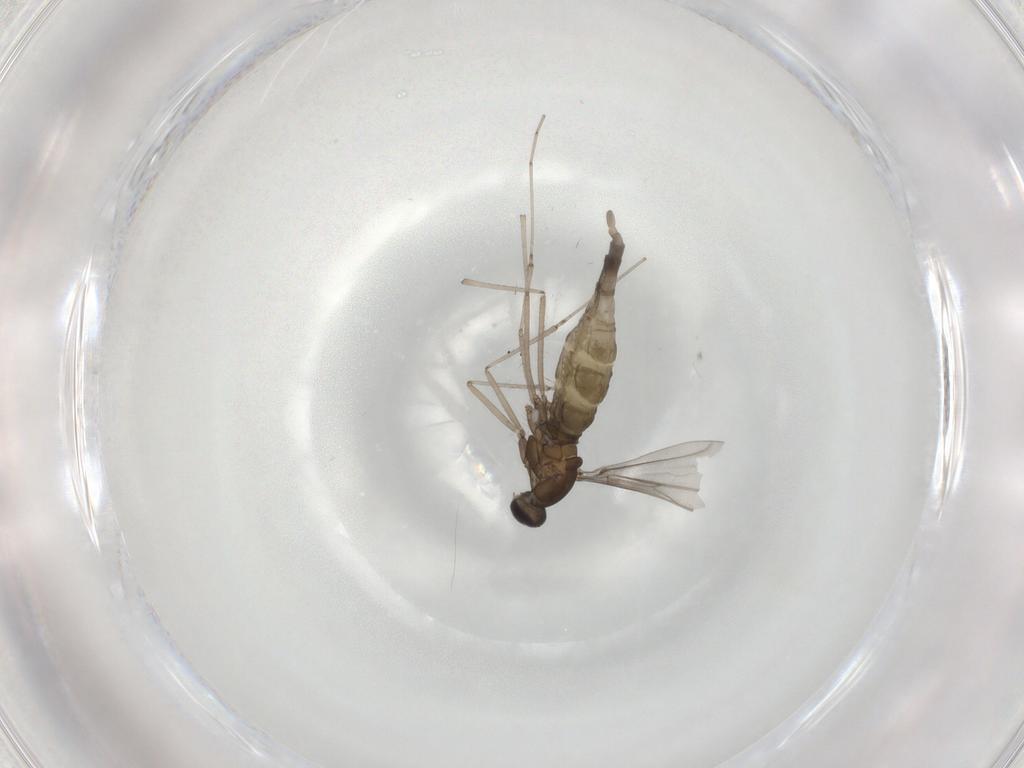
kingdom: Animalia
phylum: Arthropoda
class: Insecta
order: Diptera
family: Cecidomyiidae
